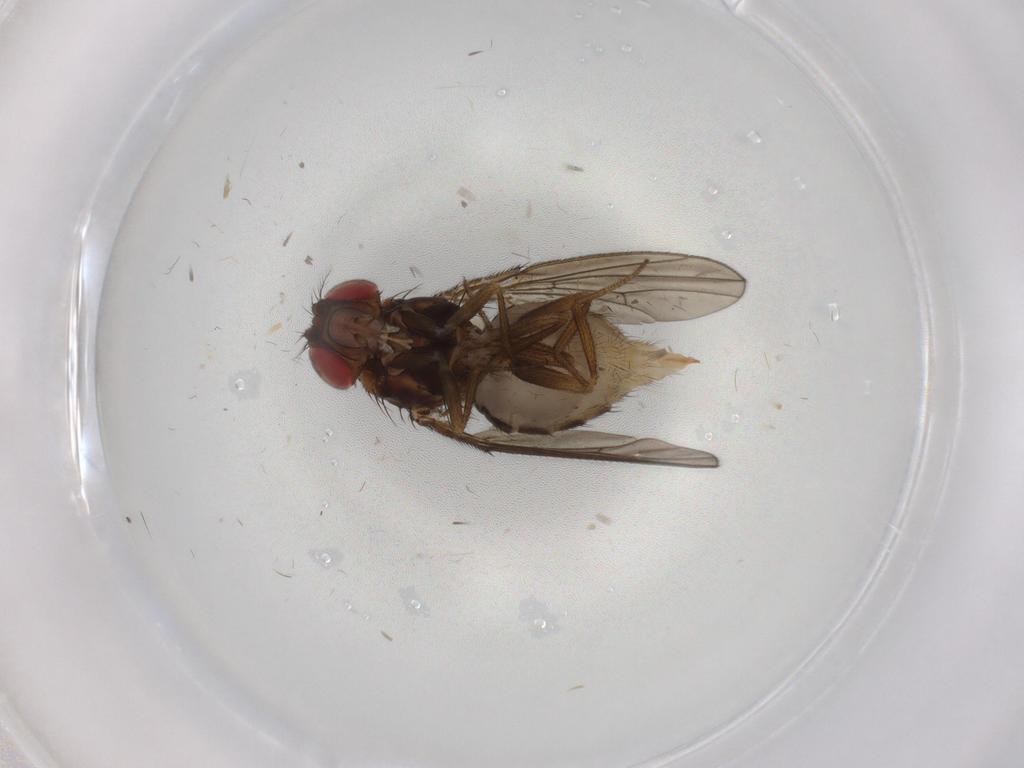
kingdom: Animalia
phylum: Arthropoda
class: Insecta
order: Diptera
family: Drosophilidae
